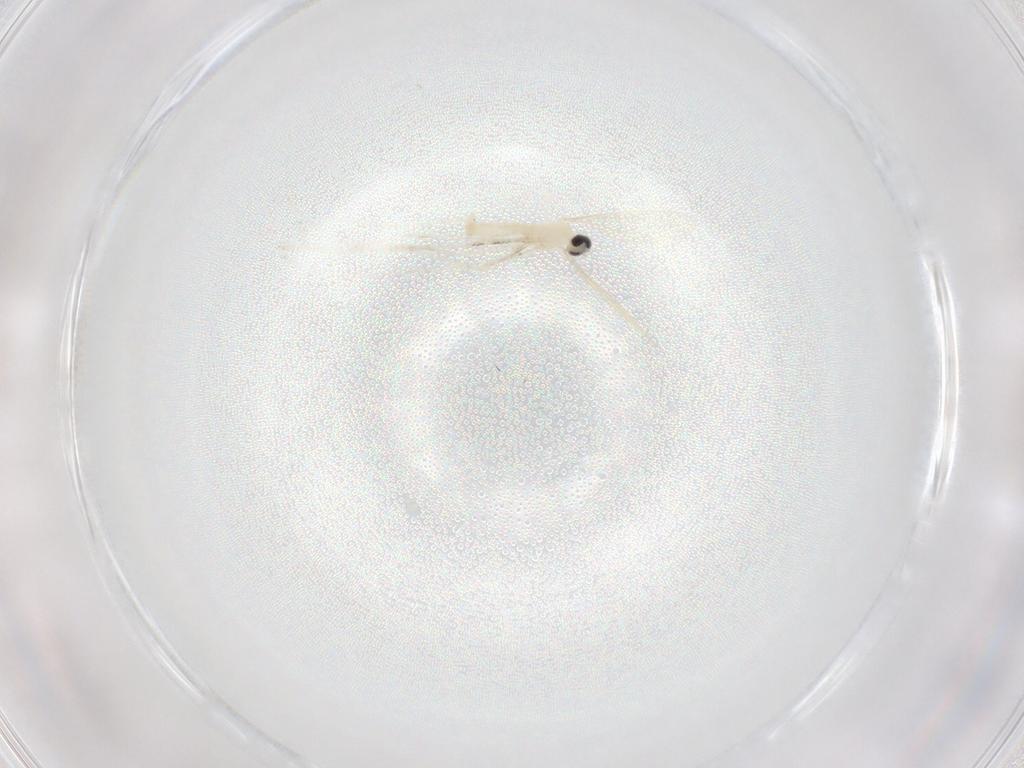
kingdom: Animalia
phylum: Arthropoda
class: Insecta
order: Diptera
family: Cecidomyiidae
